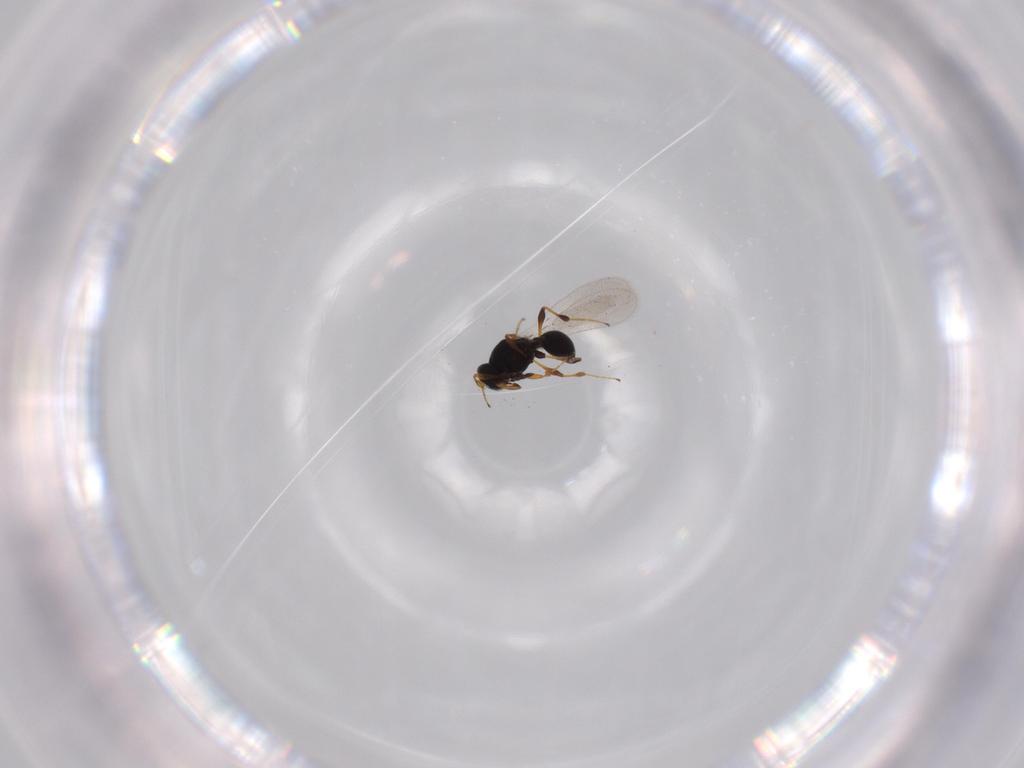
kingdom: Animalia
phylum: Arthropoda
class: Insecta
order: Hymenoptera
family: Platygastridae
